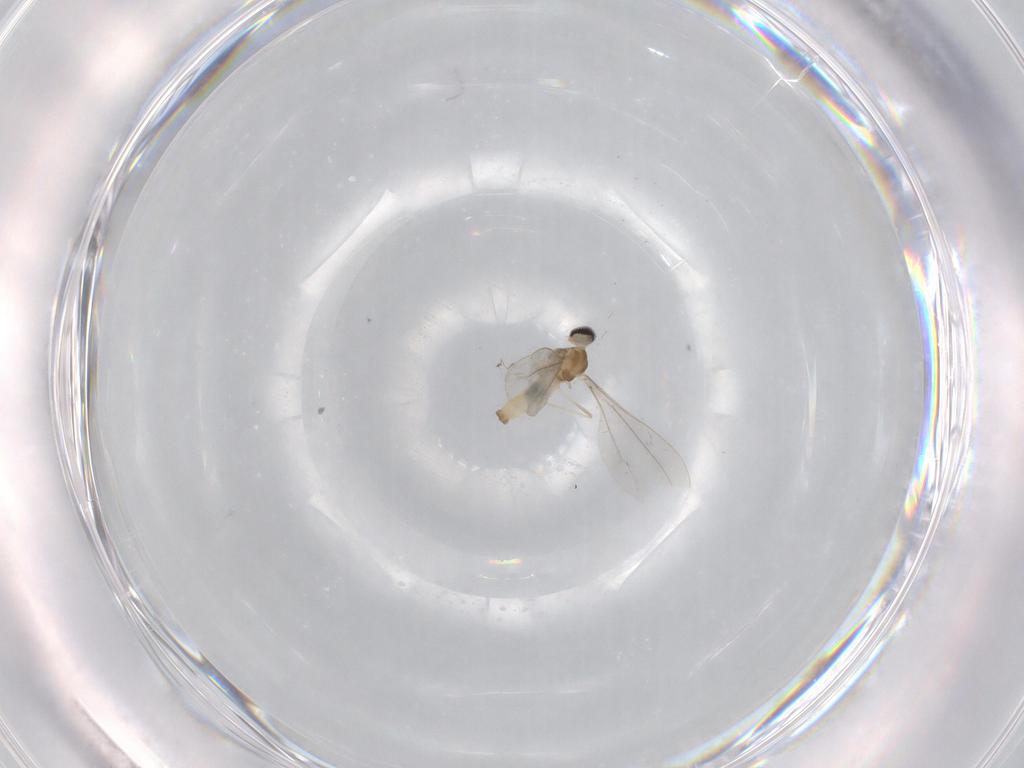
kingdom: Animalia
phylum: Arthropoda
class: Insecta
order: Diptera
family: Cecidomyiidae
